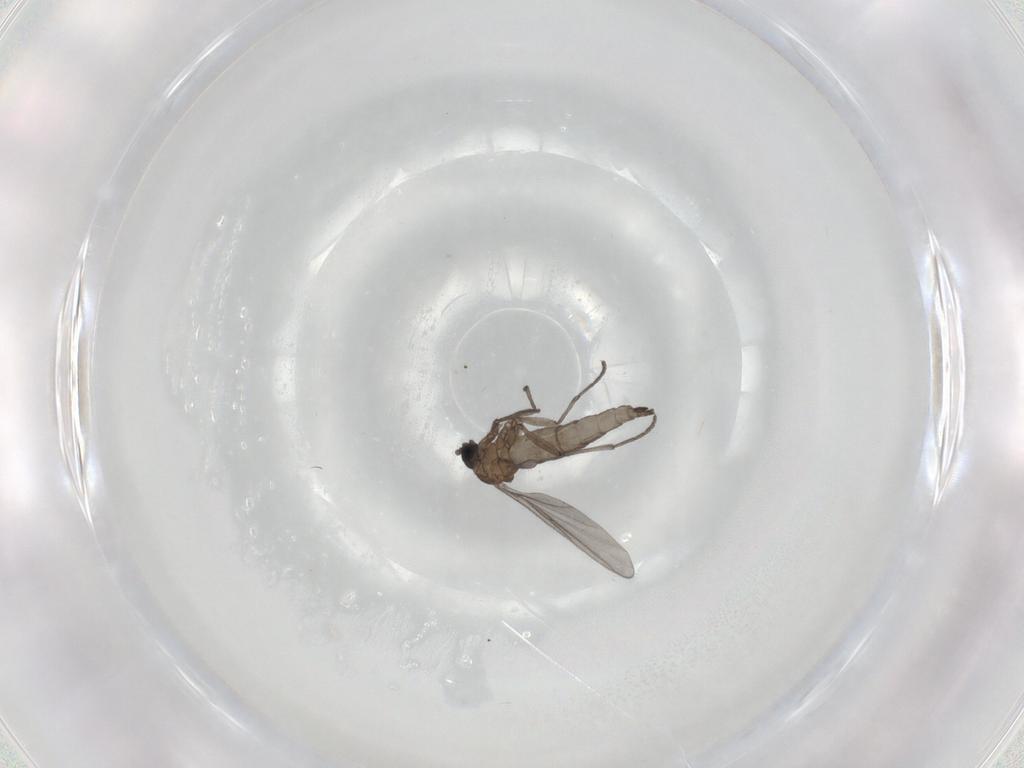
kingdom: Animalia
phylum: Arthropoda
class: Insecta
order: Diptera
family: Sciaridae
